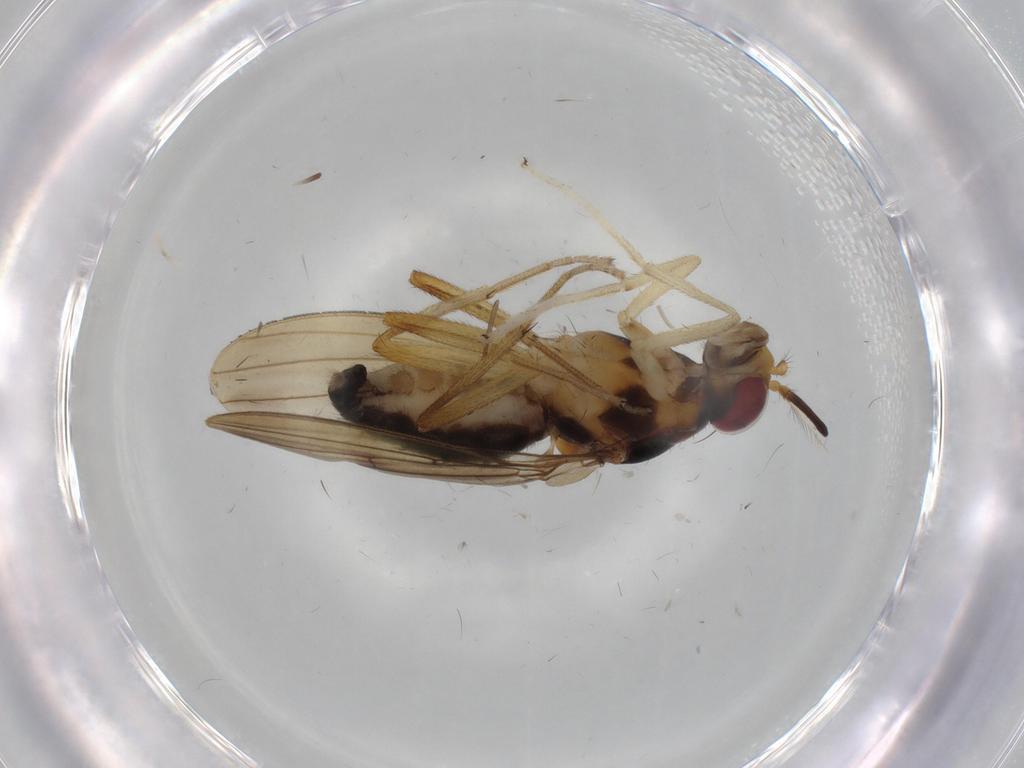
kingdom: Animalia
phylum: Arthropoda
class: Insecta
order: Diptera
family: Lauxaniidae
